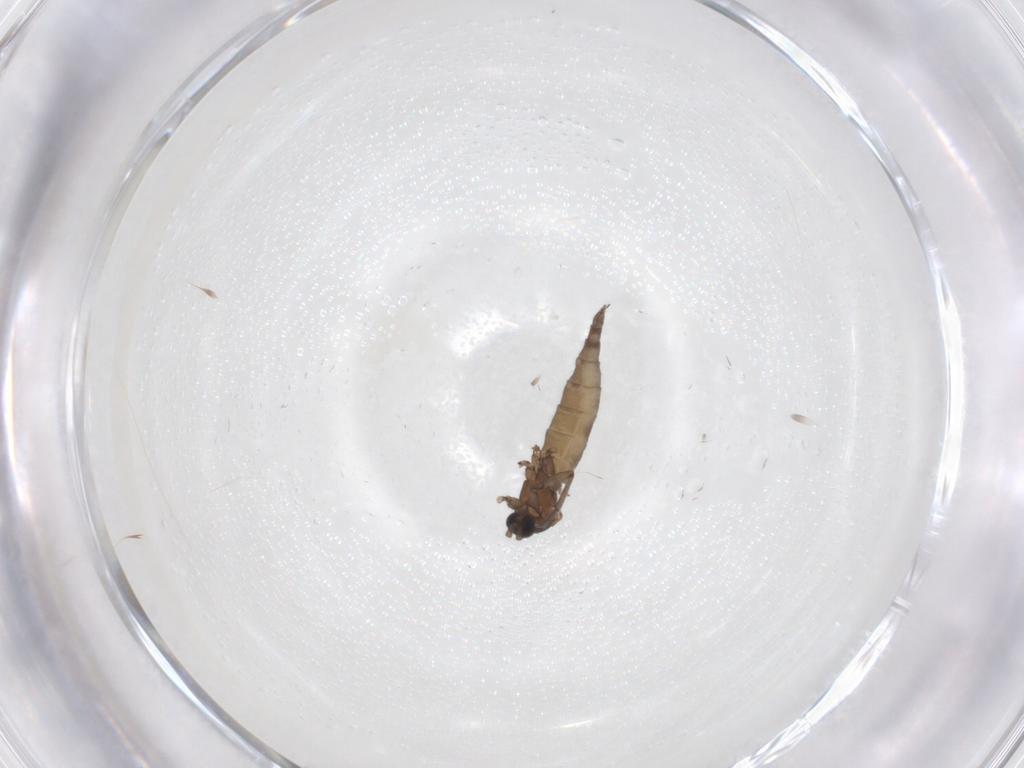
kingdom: Animalia
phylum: Arthropoda
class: Insecta
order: Diptera
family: Sciaridae
